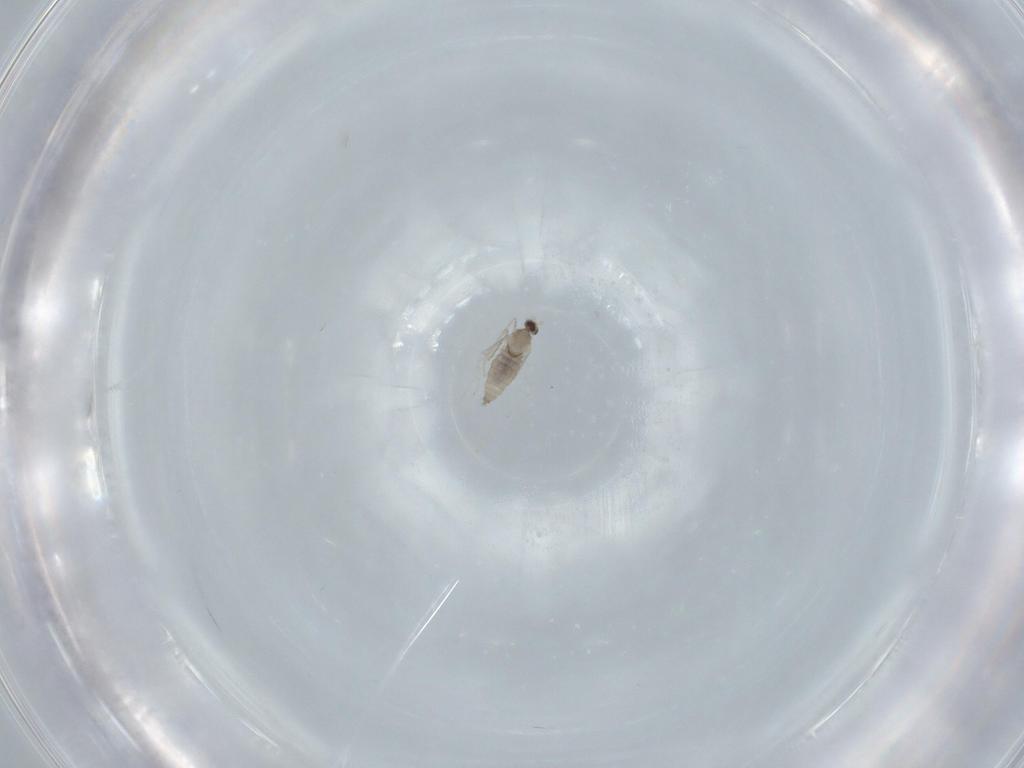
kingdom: Animalia
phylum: Arthropoda
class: Insecta
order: Diptera
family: Cecidomyiidae
